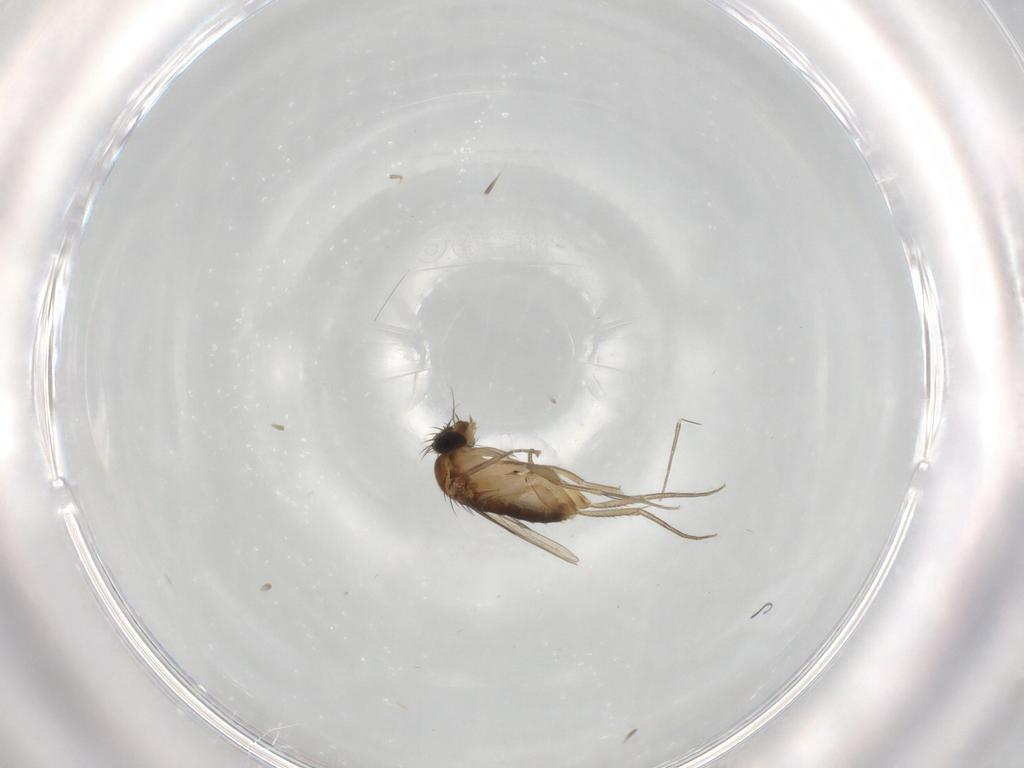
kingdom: Animalia
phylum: Arthropoda
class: Insecta
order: Diptera
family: Phoridae
